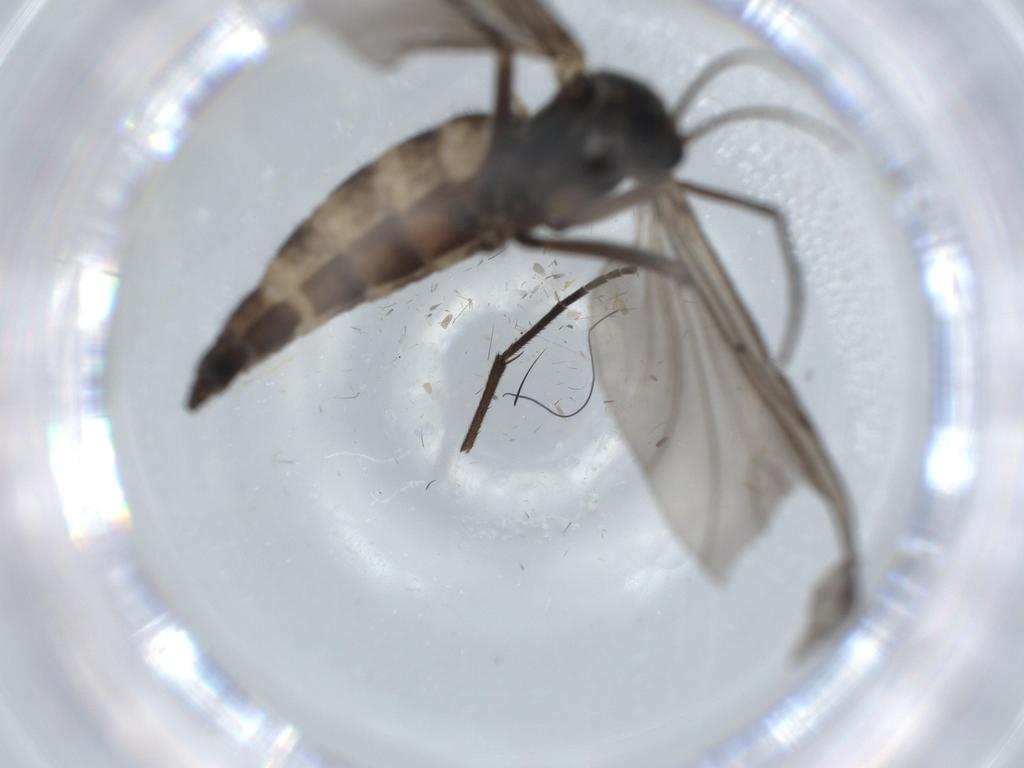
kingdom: Animalia
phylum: Arthropoda
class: Insecta
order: Diptera
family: Sciaridae
